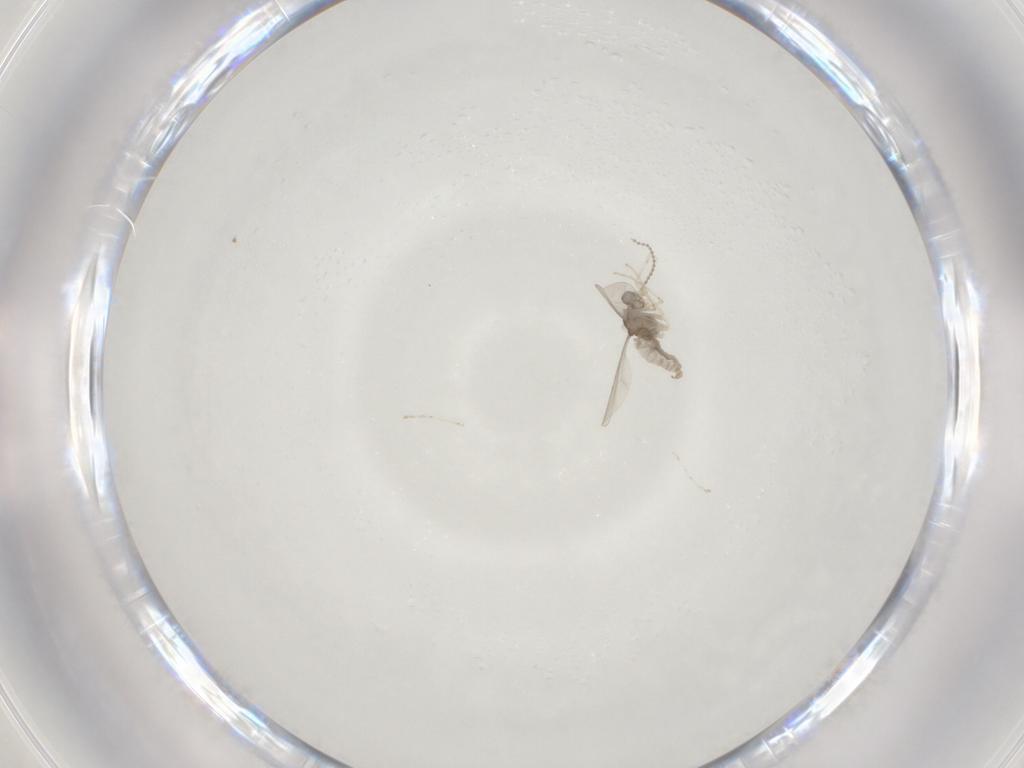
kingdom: Animalia
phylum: Arthropoda
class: Insecta
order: Diptera
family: Cecidomyiidae
